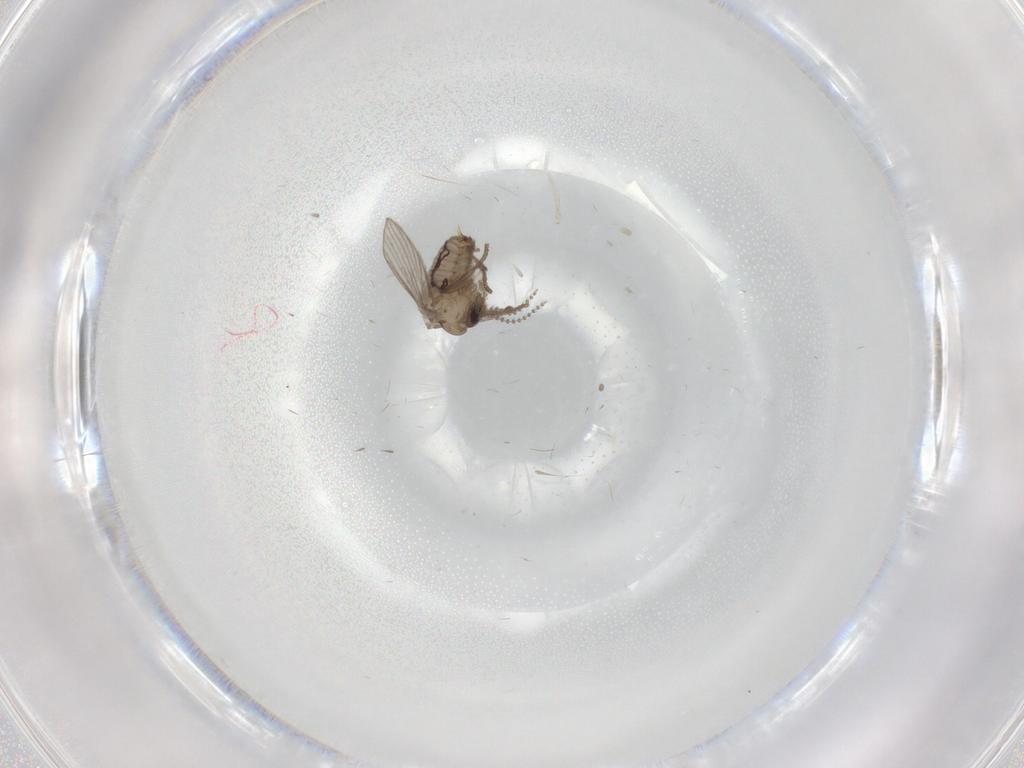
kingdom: Animalia
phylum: Arthropoda
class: Insecta
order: Diptera
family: Psychodidae
